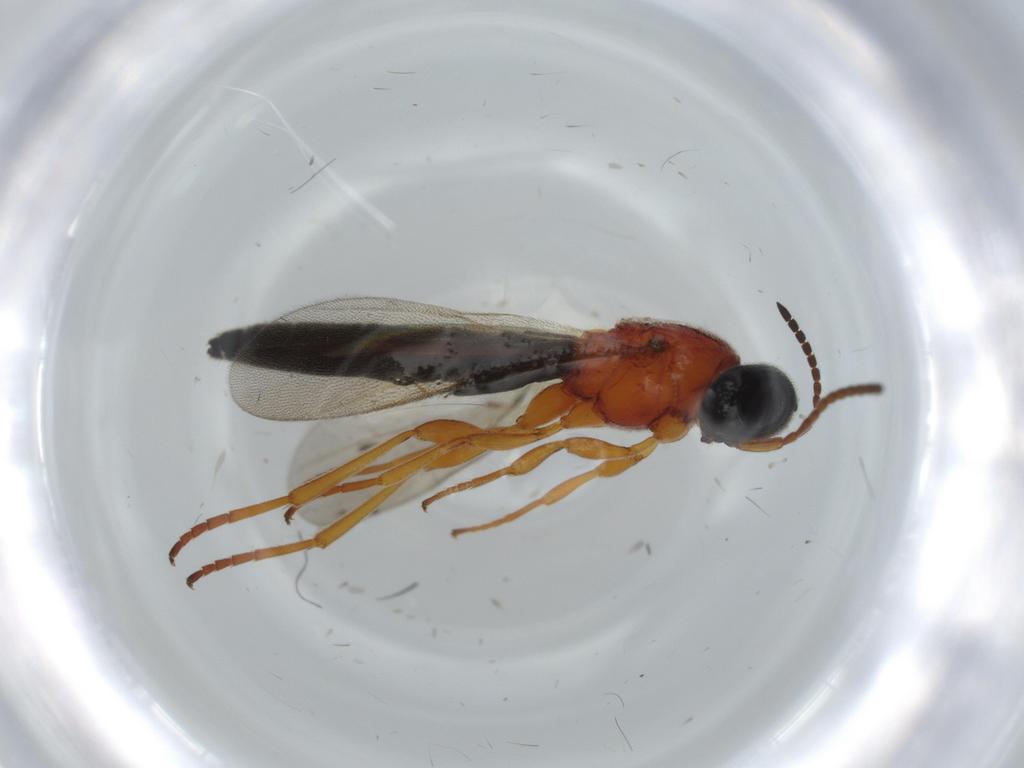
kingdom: Animalia
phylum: Arthropoda
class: Insecta
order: Hymenoptera
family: Scelionidae
